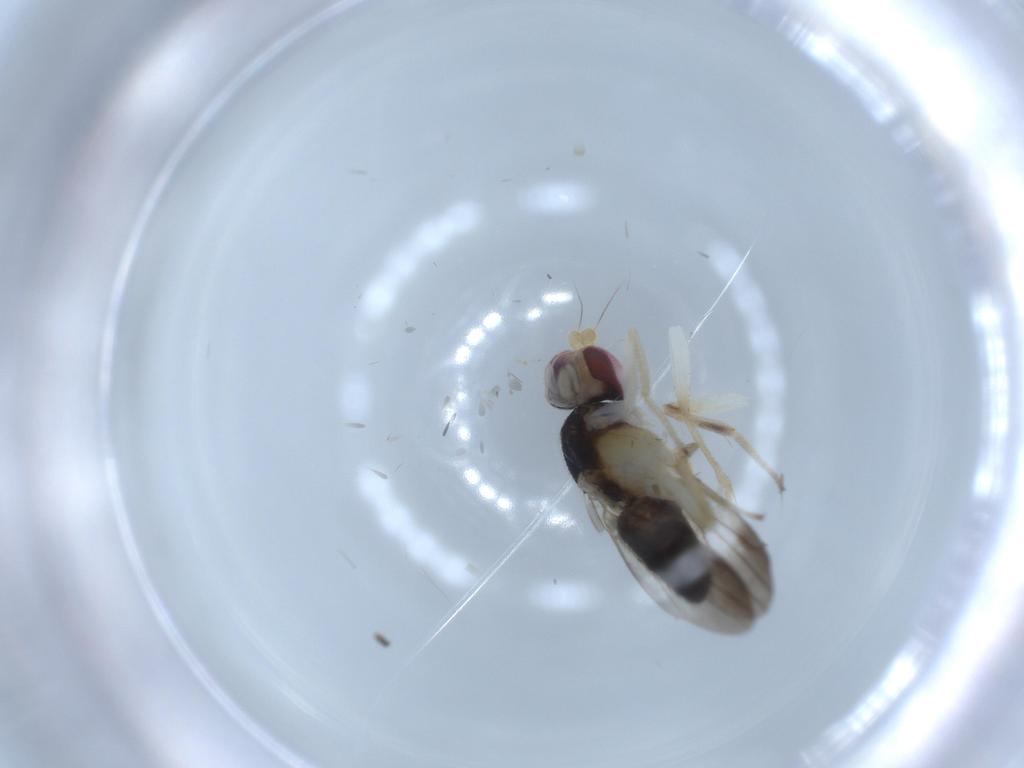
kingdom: Animalia
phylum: Arthropoda
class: Insecta
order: Diptera
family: Clusiidae
